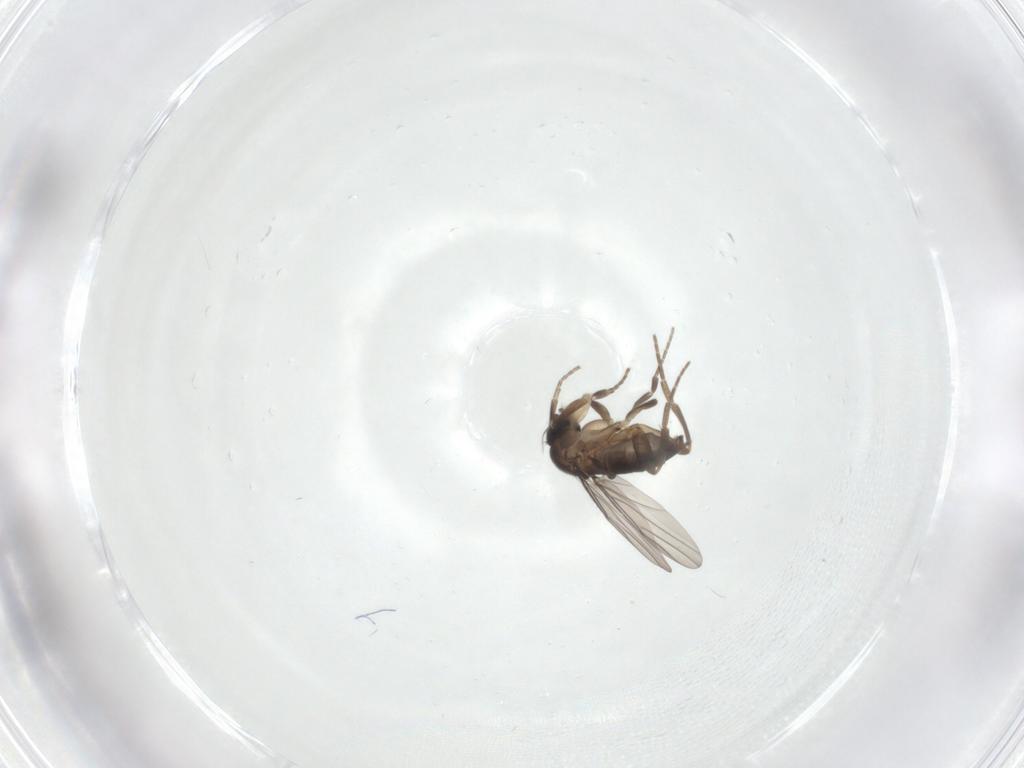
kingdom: Animalia
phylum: Arthropoda
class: Insecta
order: Diptera
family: Phoridae
